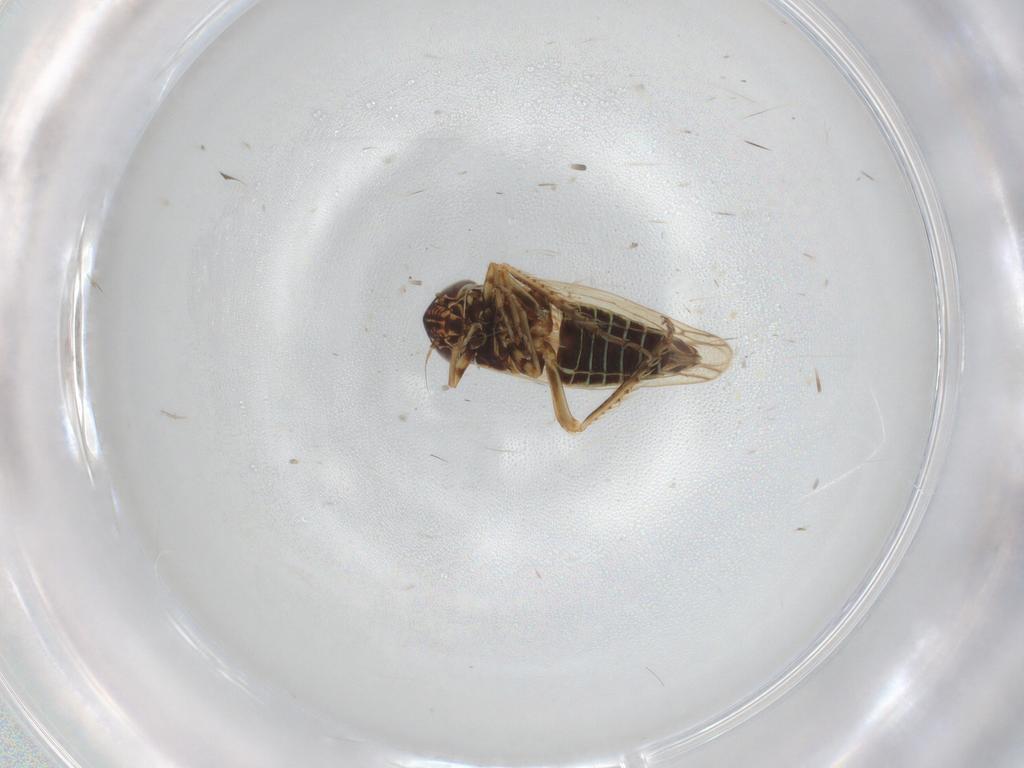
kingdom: Animalia
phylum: Arthropoda
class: Insecta
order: Hemiptera
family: Cicadellidae
